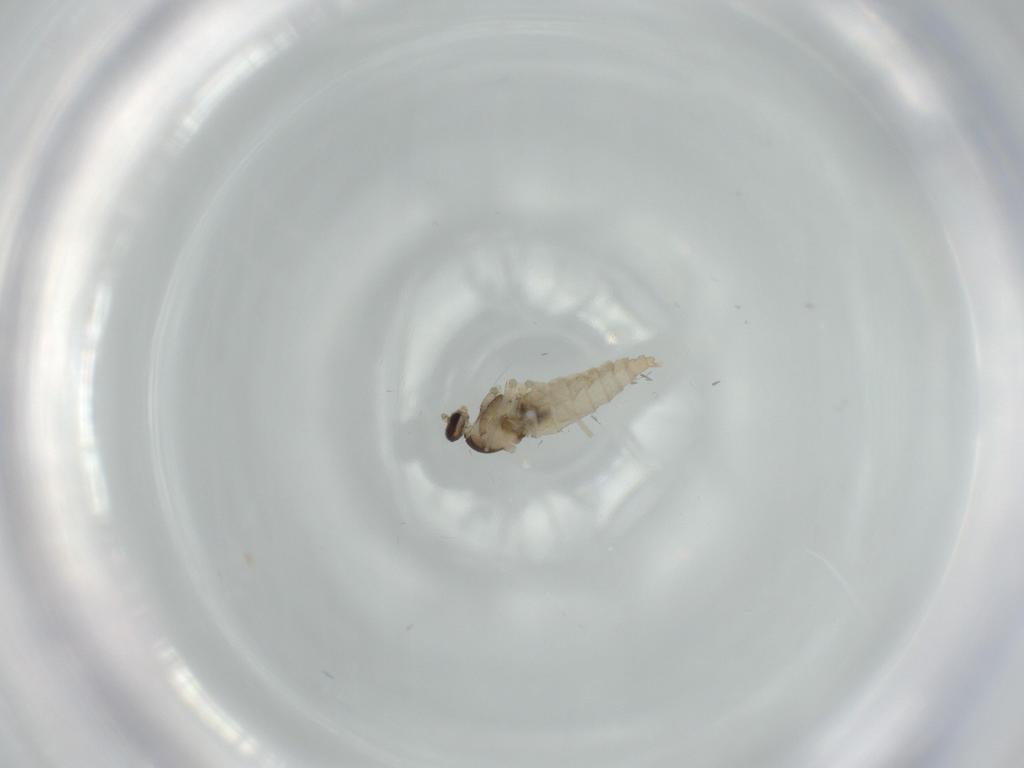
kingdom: Animalia
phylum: Arthropoda
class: Insecta
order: Diptera
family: Cecidomyiidae
